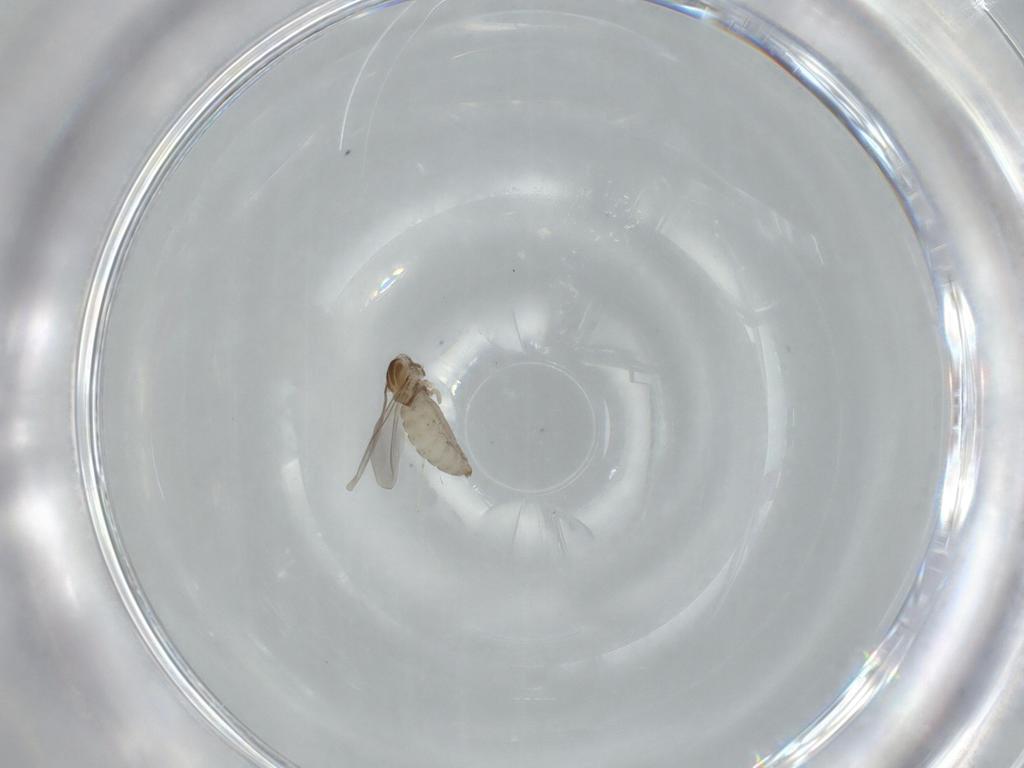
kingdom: Animalia
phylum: Arthropoda
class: Insecta
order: Diptera
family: Cecidomyiidae
